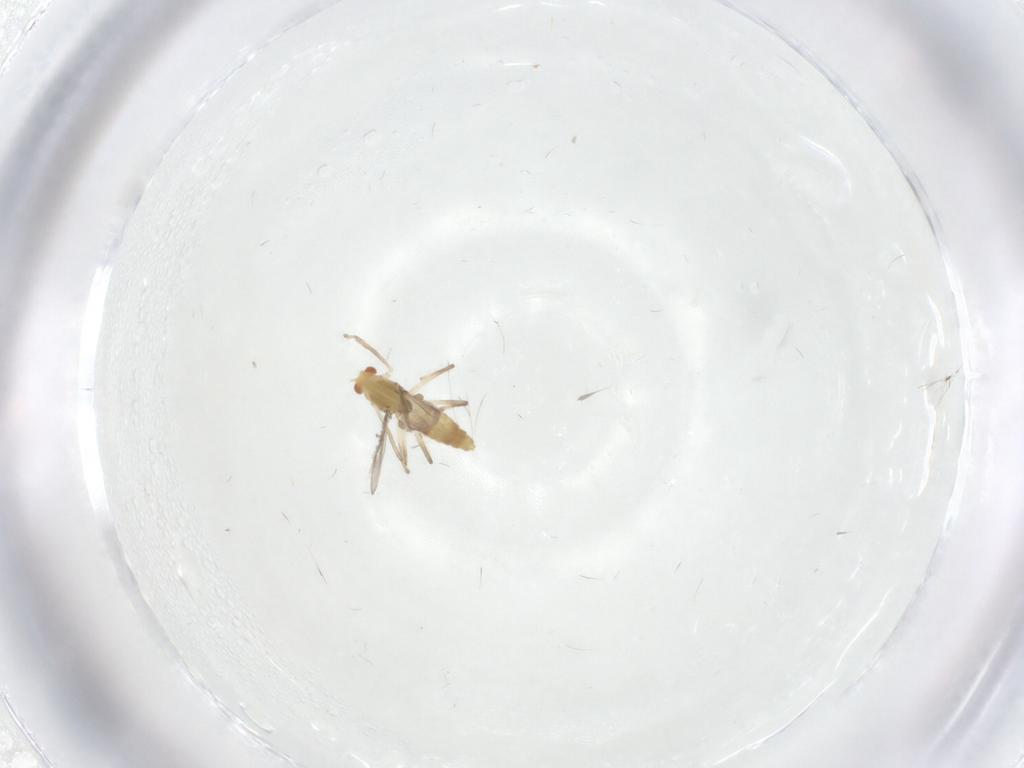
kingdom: Animalia
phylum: Arthropoda
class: Insecta
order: Diptera
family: Chironomidae
